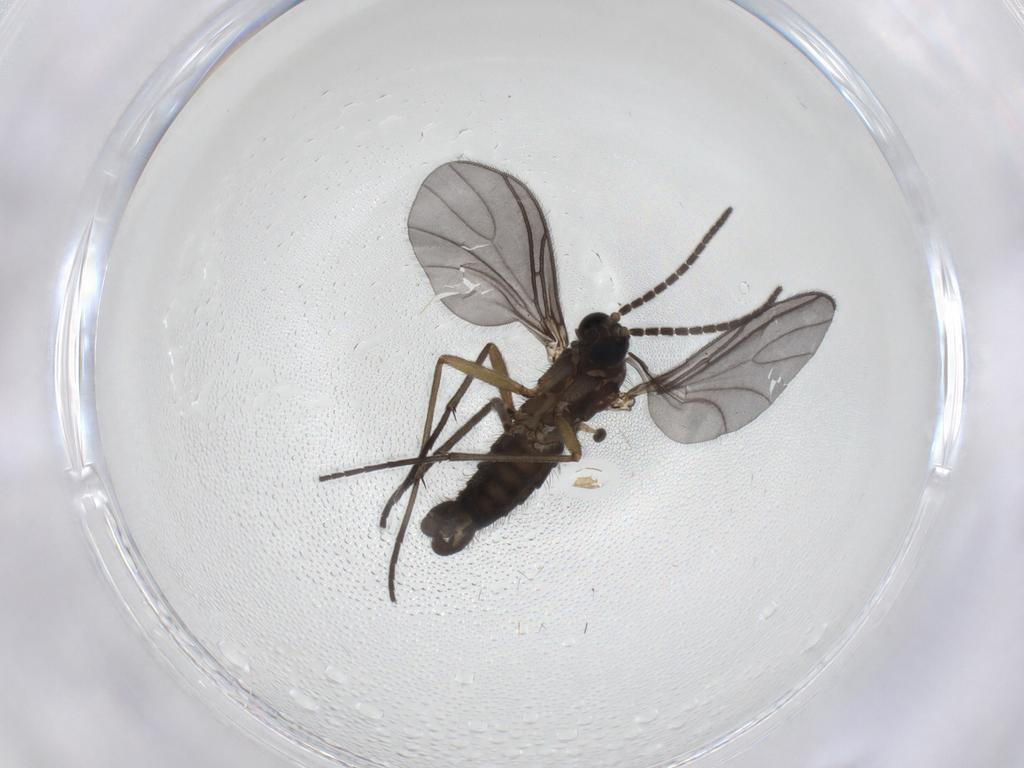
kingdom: Animalia
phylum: Arthropoda
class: Insecta
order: Diptera
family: Sciaridae
